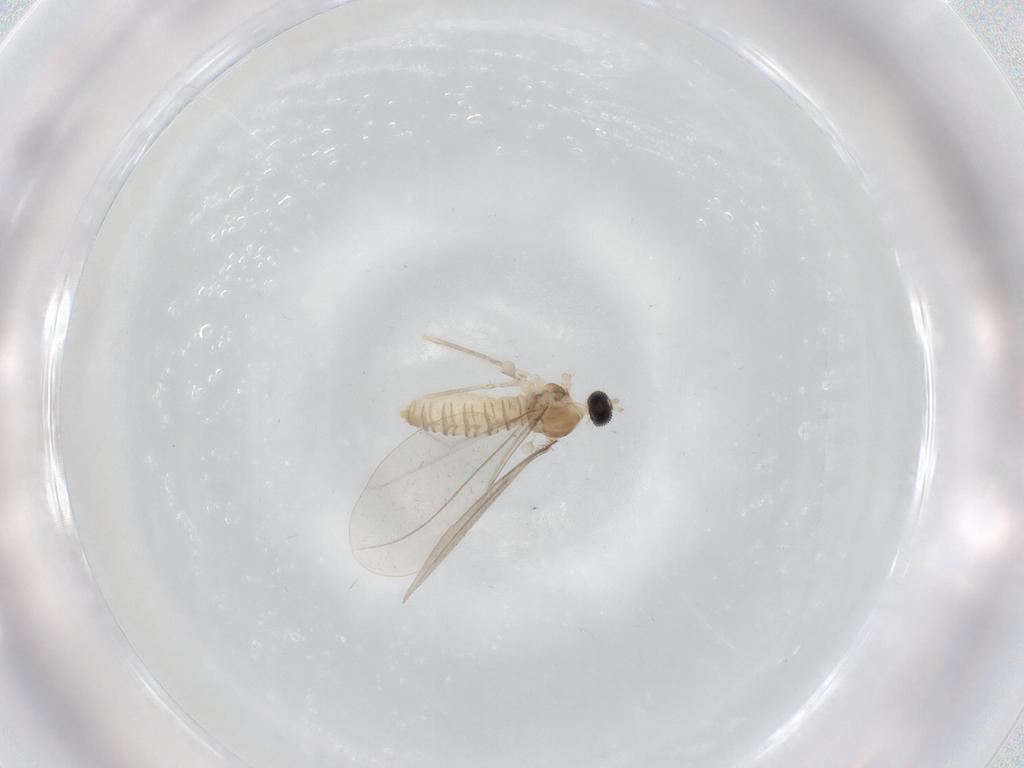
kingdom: Animalia
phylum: Arthropoda
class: Insecta
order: Diptera
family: Cecidomyiidae
